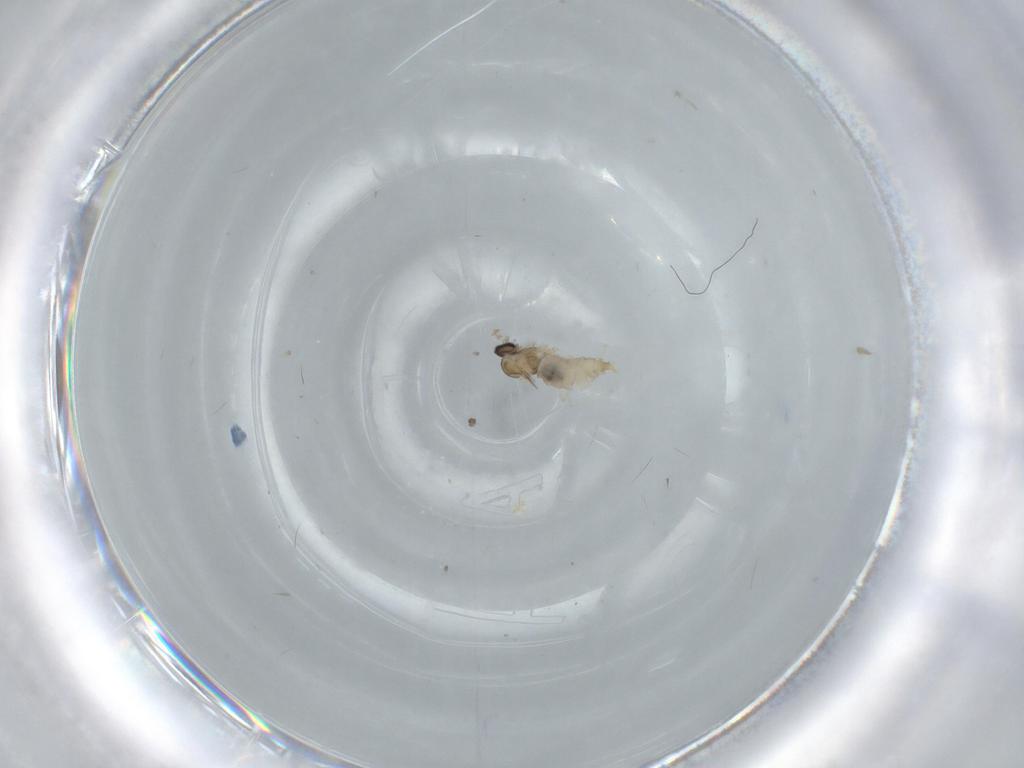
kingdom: Animalia
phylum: Arthropoda
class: Insecta
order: Diptera
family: Cecidomyiidae
